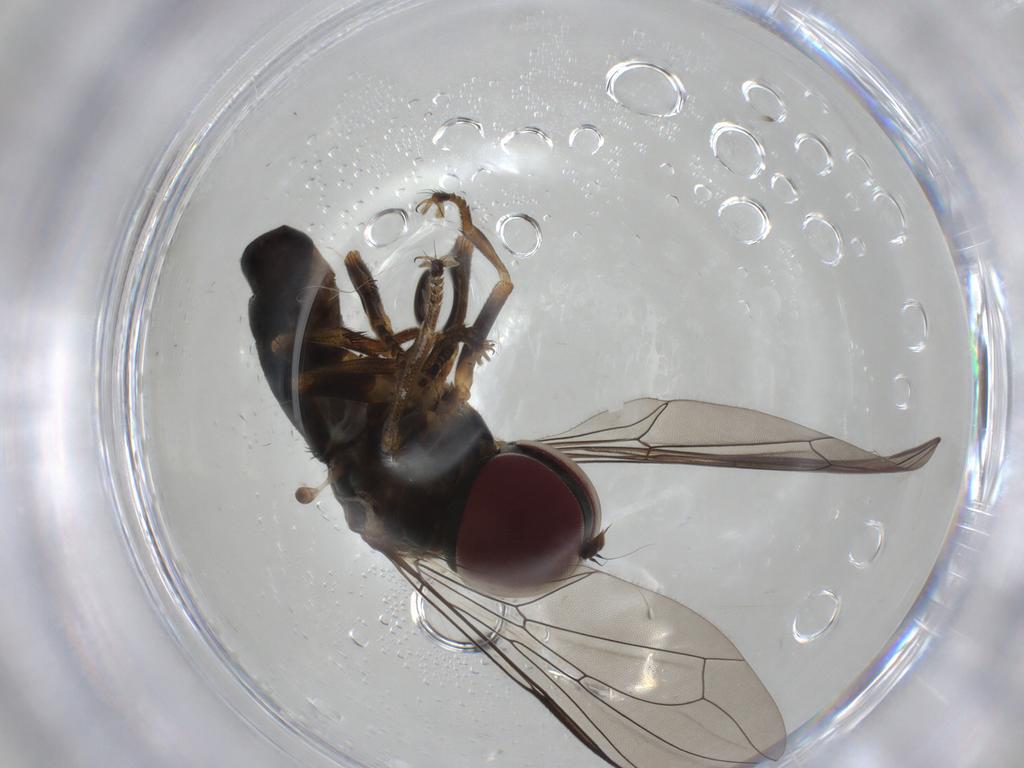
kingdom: Animalia
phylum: Arthropoda
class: Insecta
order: Diptera
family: Pipunculidae
